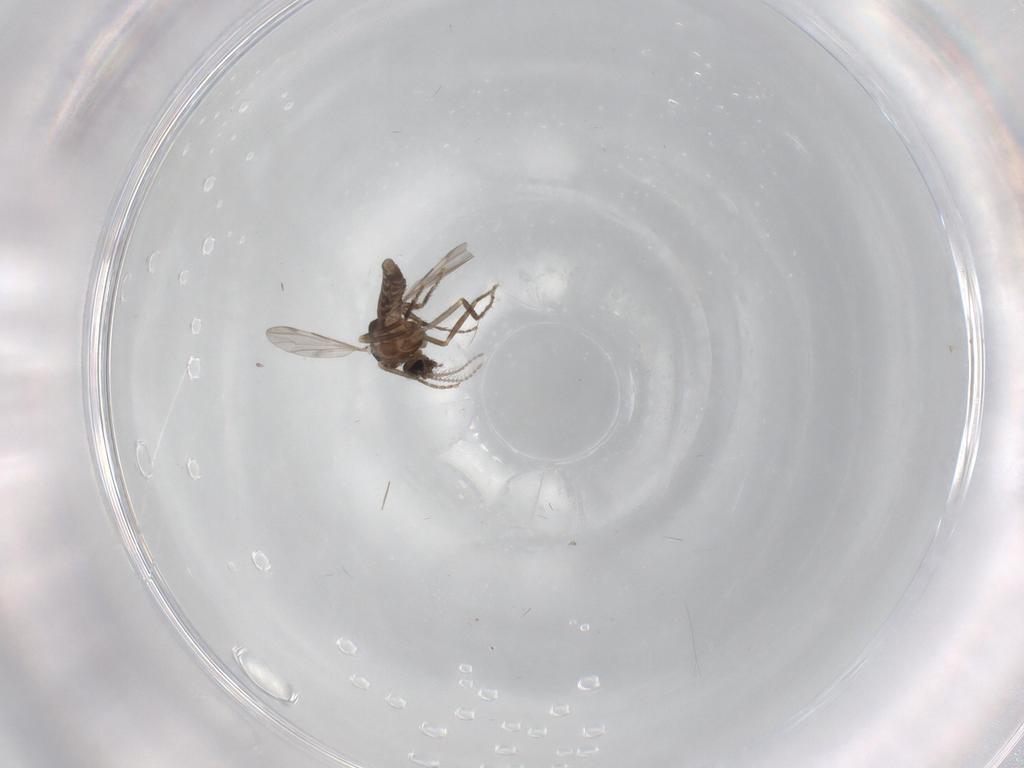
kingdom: Animalia
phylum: Arthropoda
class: Insecta
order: Diptera
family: Ceratopogonidae
